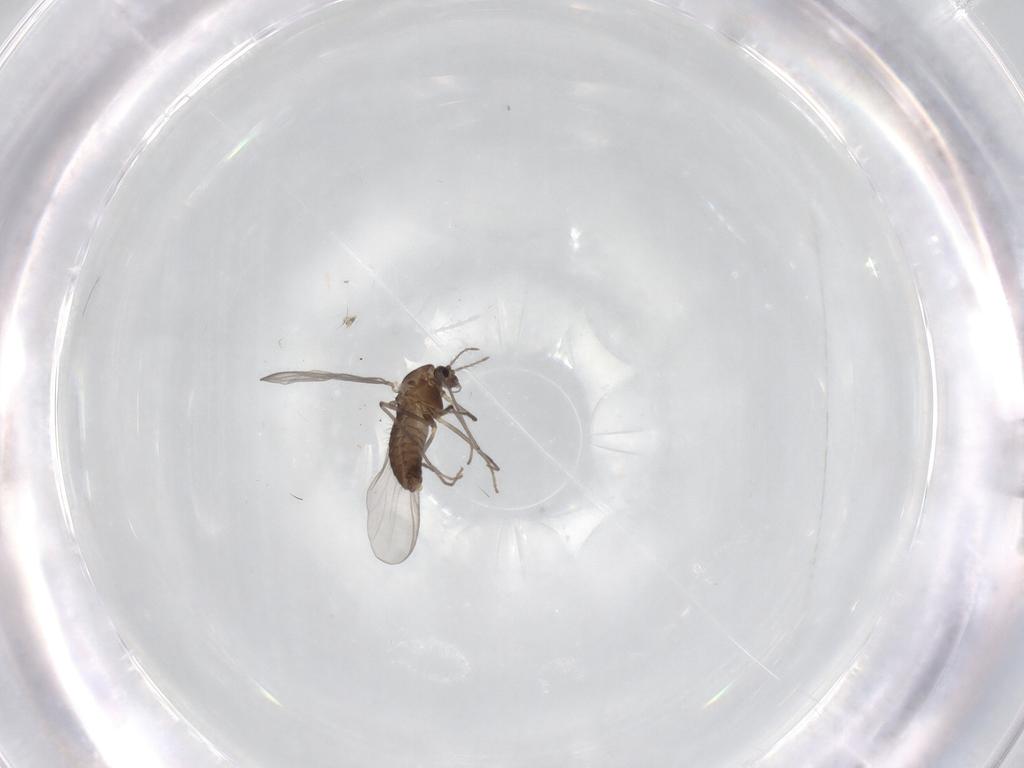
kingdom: Animalia
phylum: Arthropoda
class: Insecta
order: Diptera
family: Chironomidae
